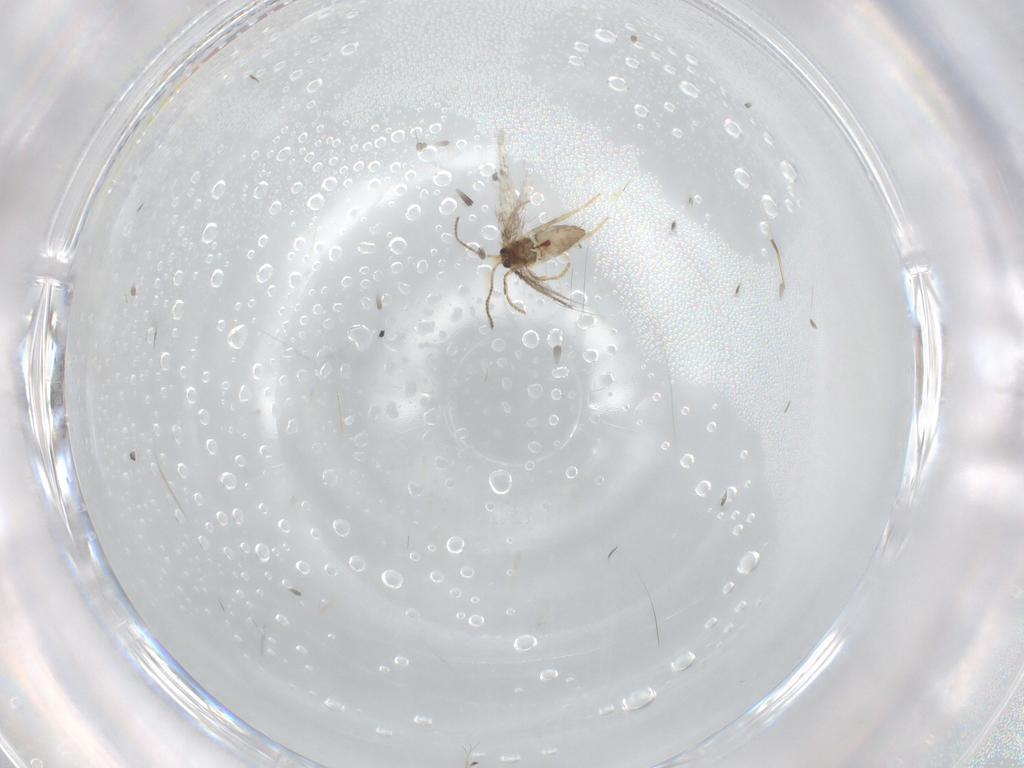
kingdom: Animalia
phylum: Arthropoda
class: Insecta
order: Lepidoptera
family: Nepticulidae
